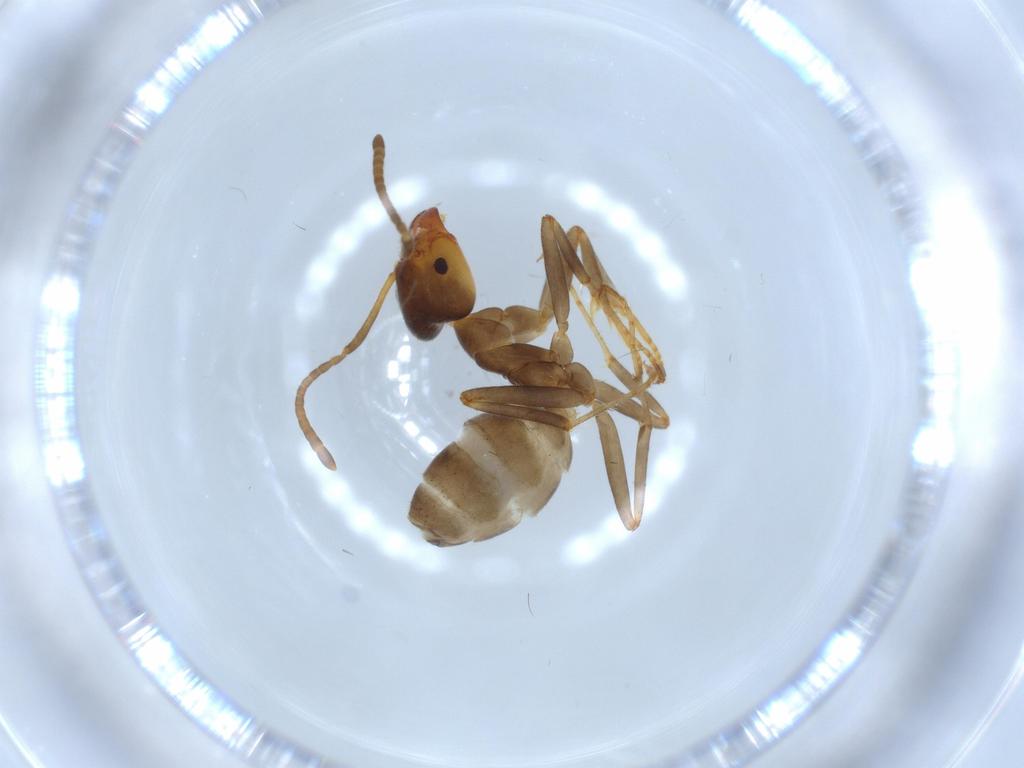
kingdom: Animalia
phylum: Arthropoda
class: Insecta
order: Hymenoptera
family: Formicidae
